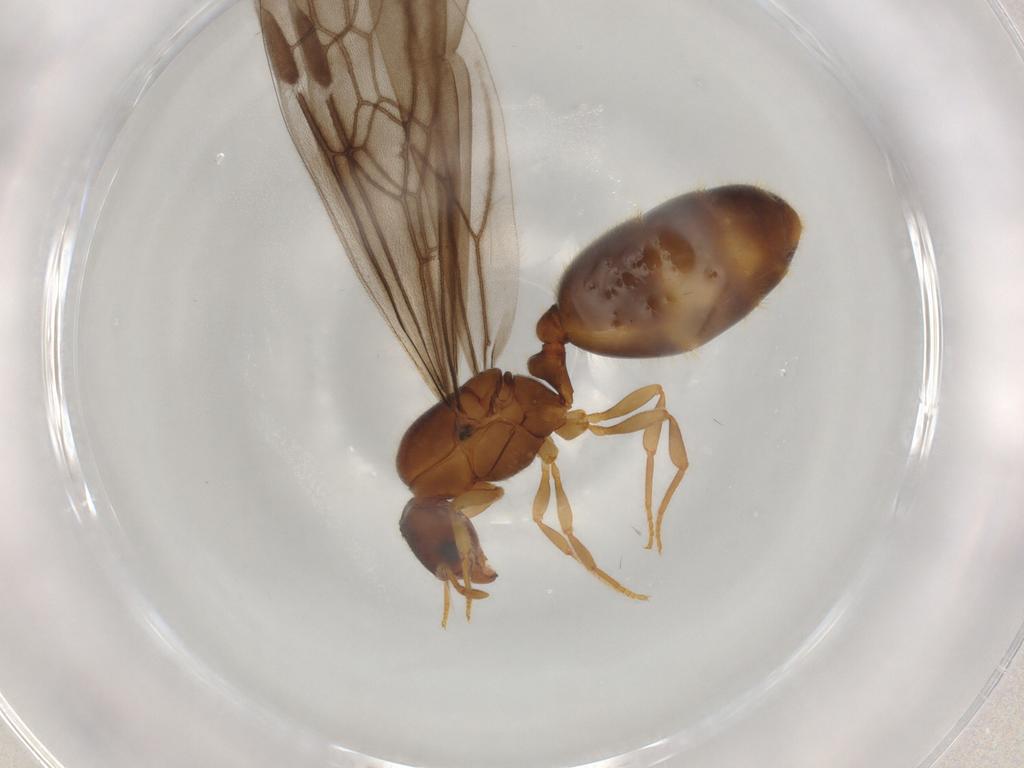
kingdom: Animalia
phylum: Arthropoda
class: Insecta
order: Hymenoptera
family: Formicidae
